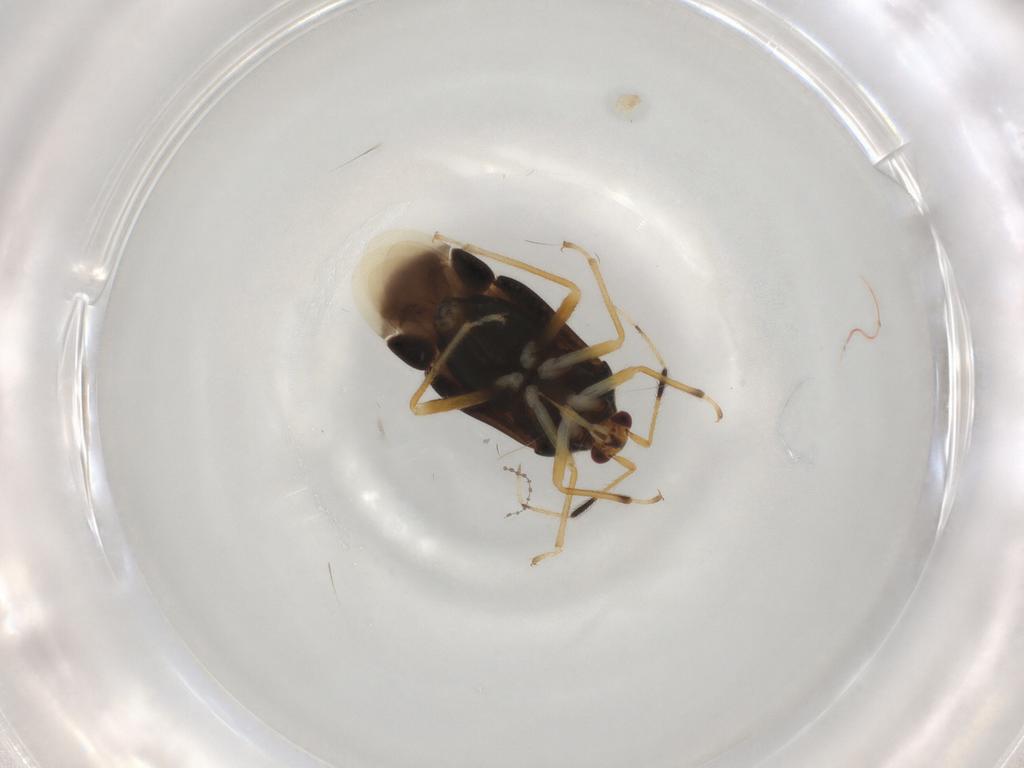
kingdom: Animalia
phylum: Arthropoda
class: Insecta
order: Hemiptera
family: Miridae
